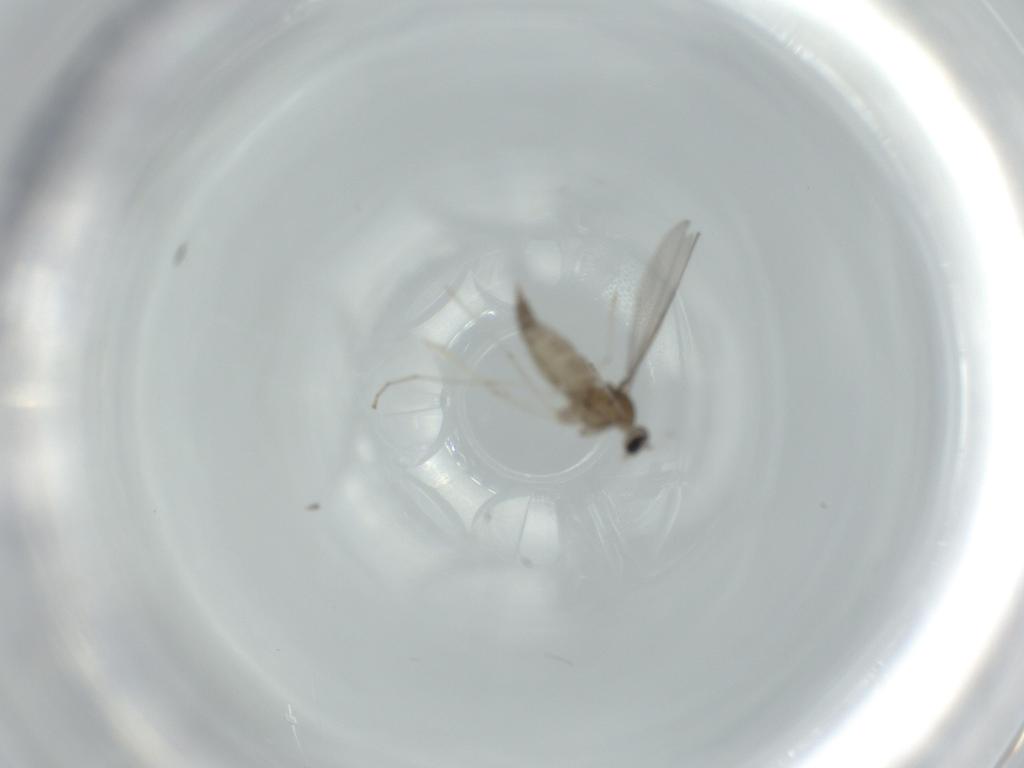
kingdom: Animalia
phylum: Arthropoda
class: Insecta
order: Diptera
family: Cecidomyiidae
